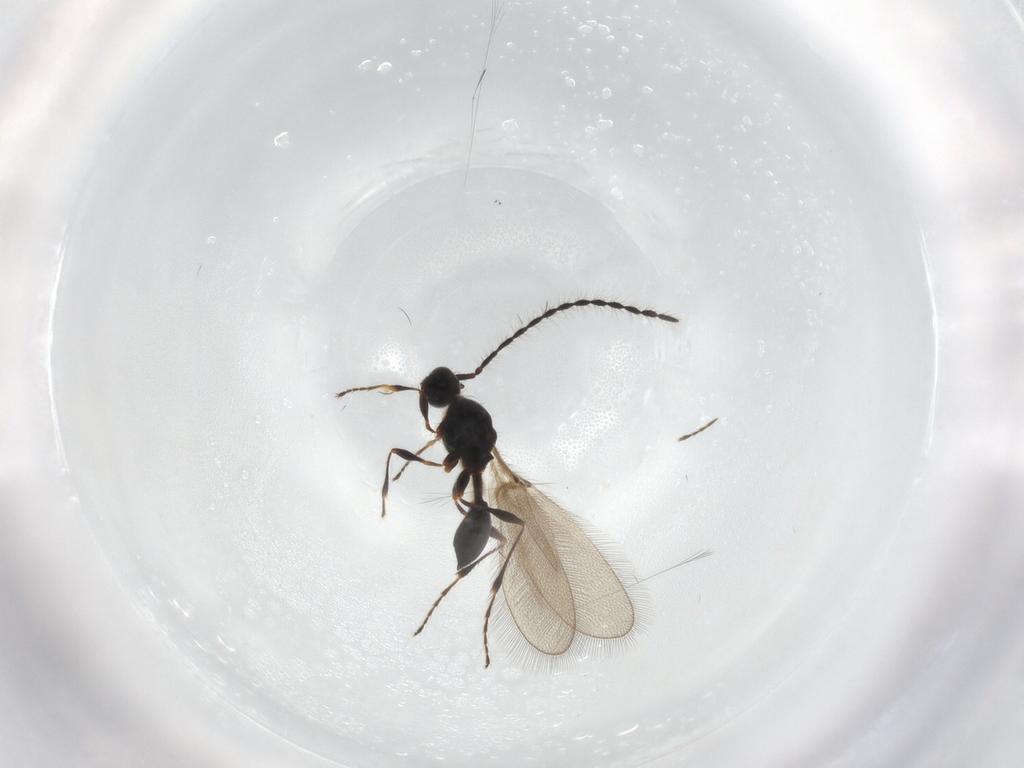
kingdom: Animalia
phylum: Arthropoda
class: Insecta
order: Hymenoptera
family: Diapriidae
